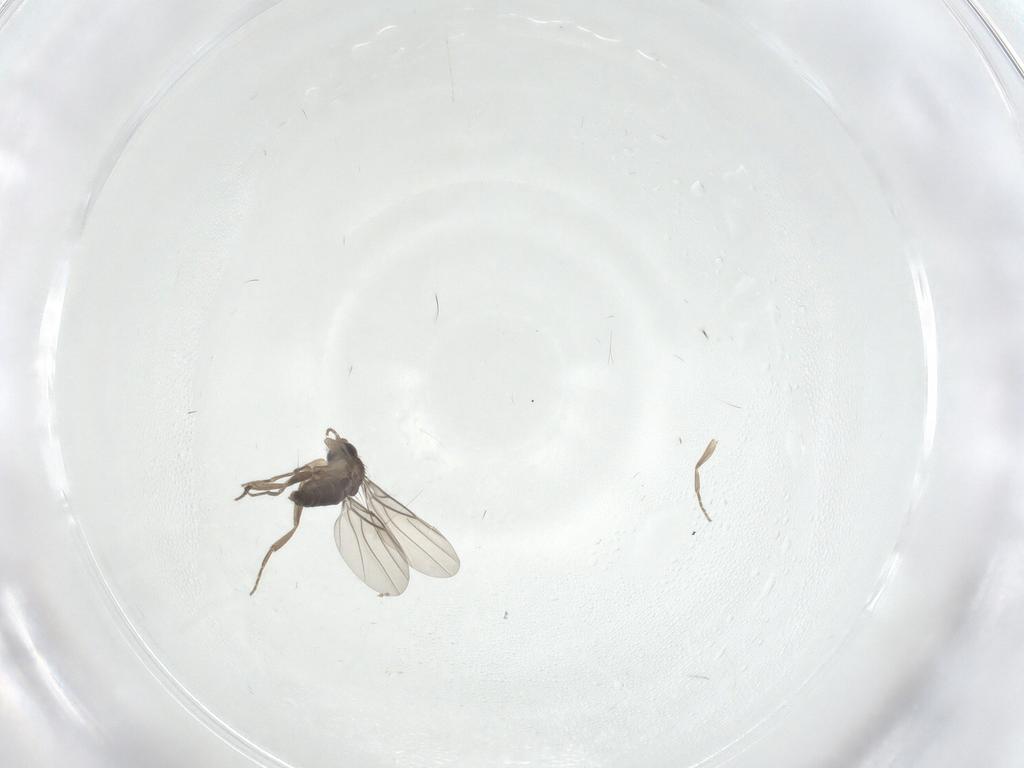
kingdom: Animalia
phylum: Arthropoda
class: Insecta
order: Diptera
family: Phoridae
